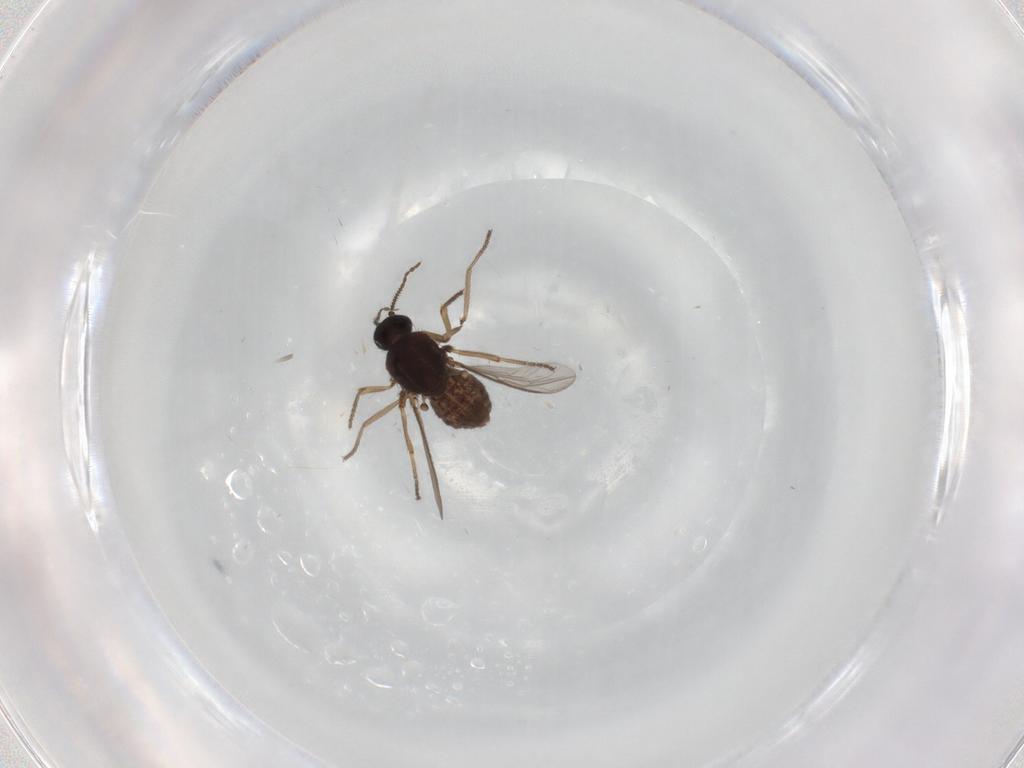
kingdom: Animalia
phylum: Arthropoda
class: Insecta
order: Diptera
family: Ceratopogonidae
